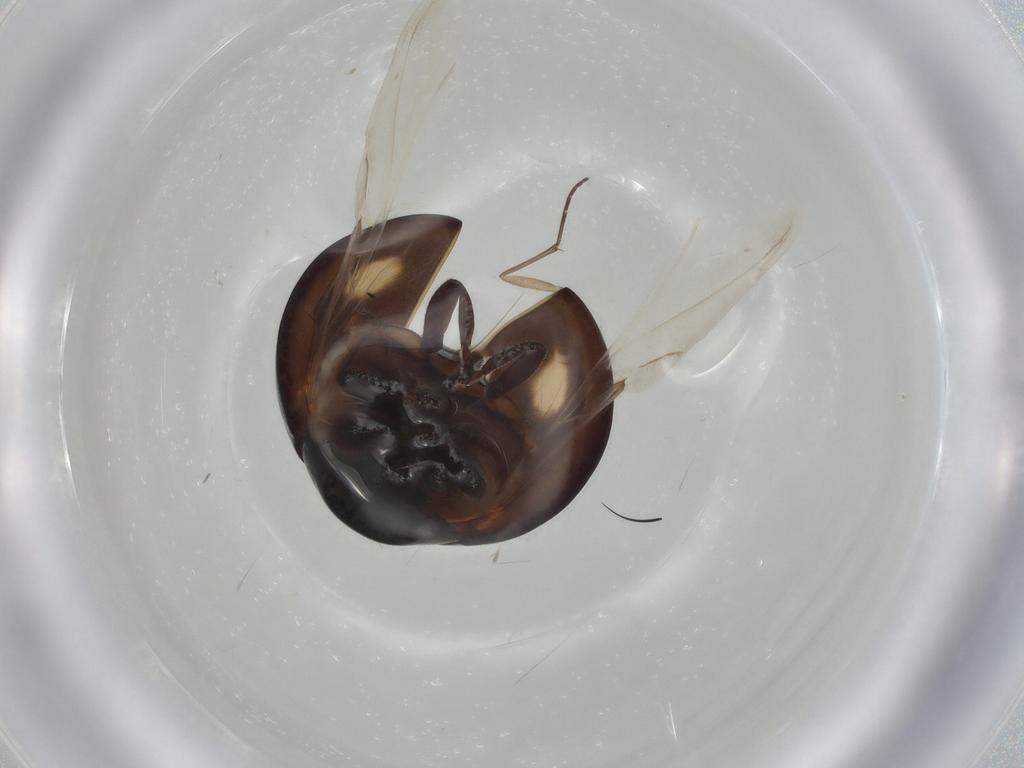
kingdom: Animalia
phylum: Arthropoda
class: Insecta
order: Coleoptera
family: Coccinellidae
